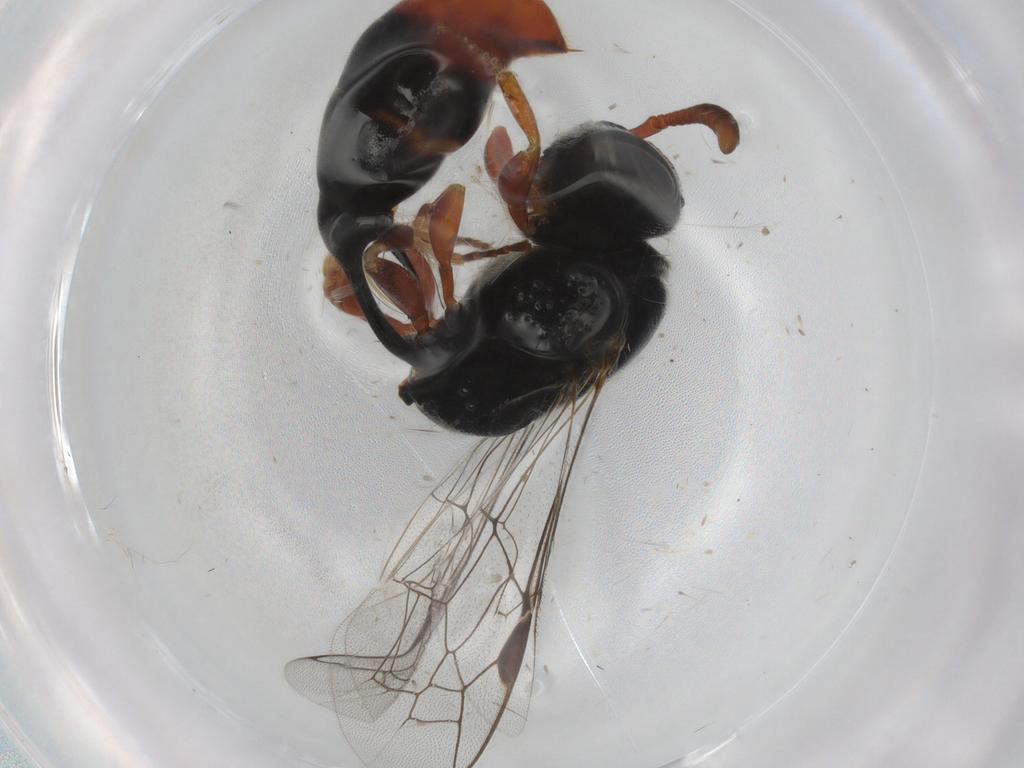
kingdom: Animalia
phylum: Arthropoda
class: Insecta
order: Hymenoptera
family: Psenidae
